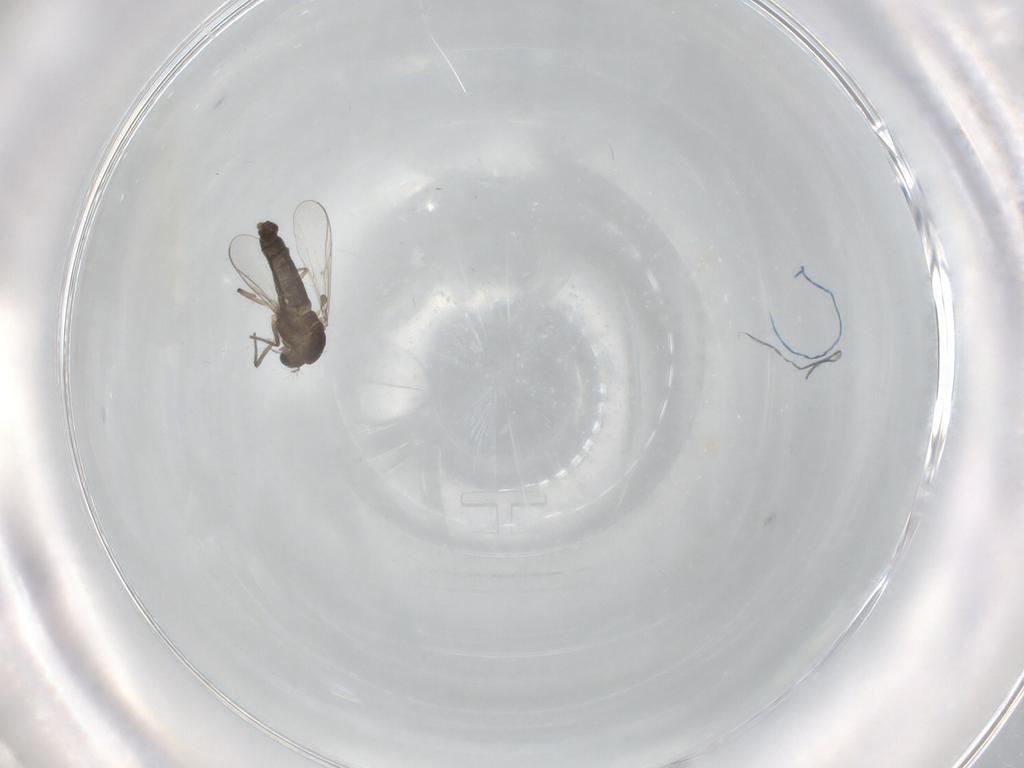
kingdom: Animalia
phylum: Arthropoda
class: Insecta
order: Diptera
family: Chironomidae
